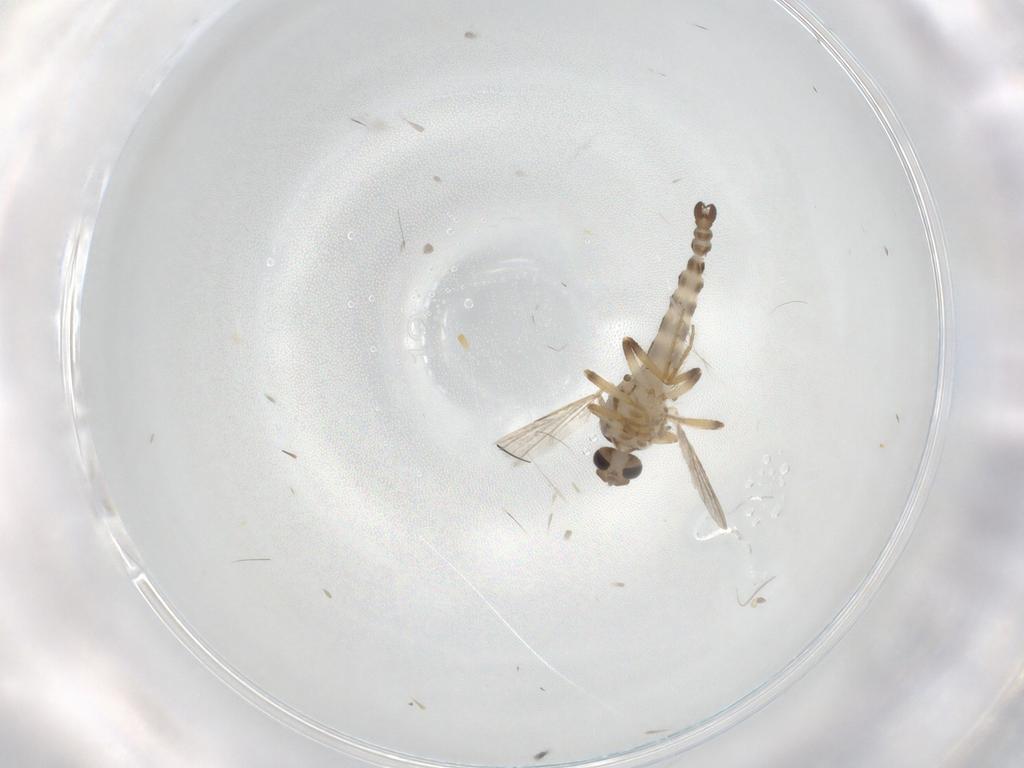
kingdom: Animalia
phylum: Arthropoda
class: Insecta
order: Diptera
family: Ceratopogonidae
